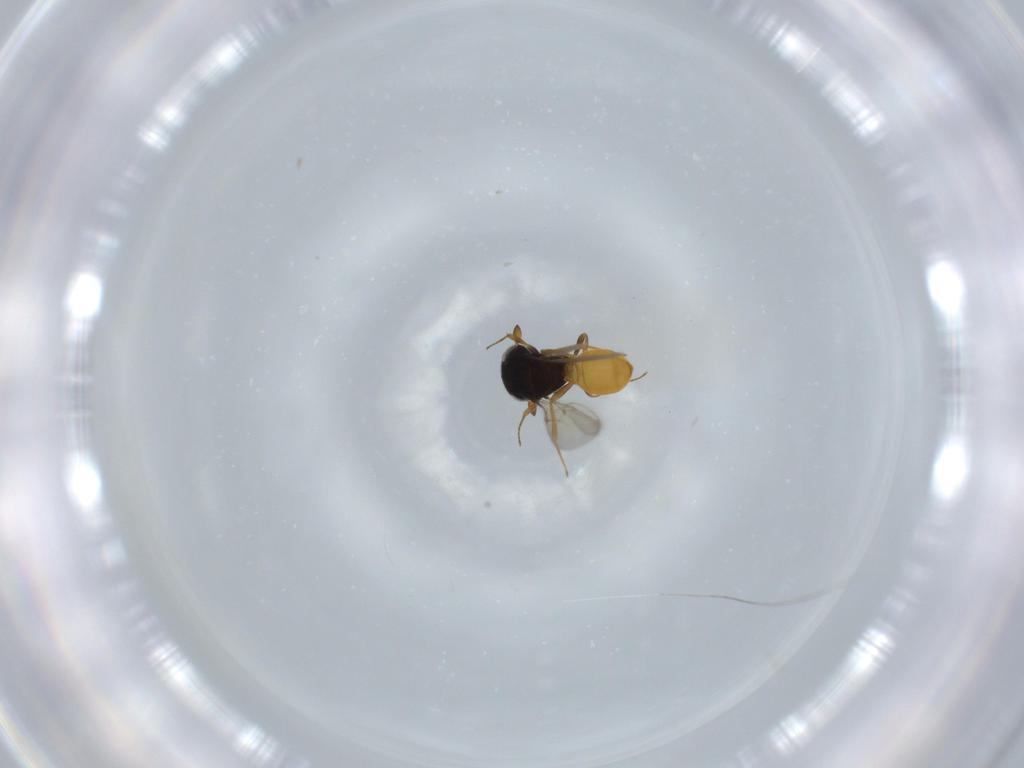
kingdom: Animalia
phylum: Arthropoda
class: Insecta
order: Hymenoptera
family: Scelionidae
